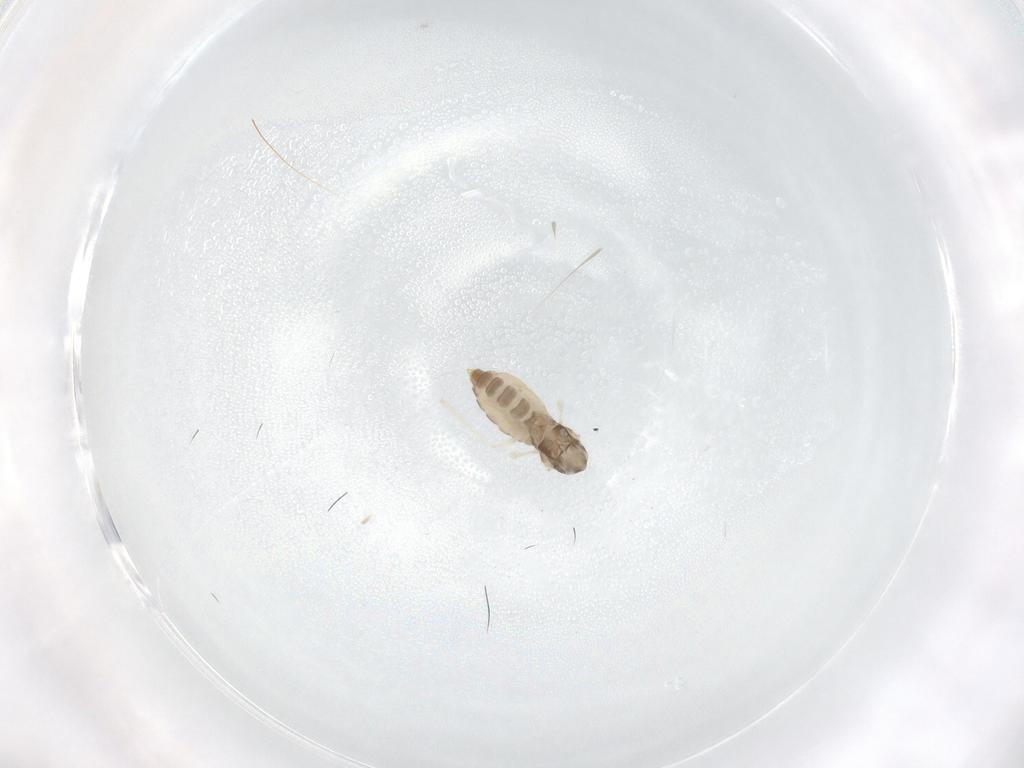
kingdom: Animalia
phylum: Arthropoda
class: Insecta
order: Diptera
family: Cecidomyiidae
